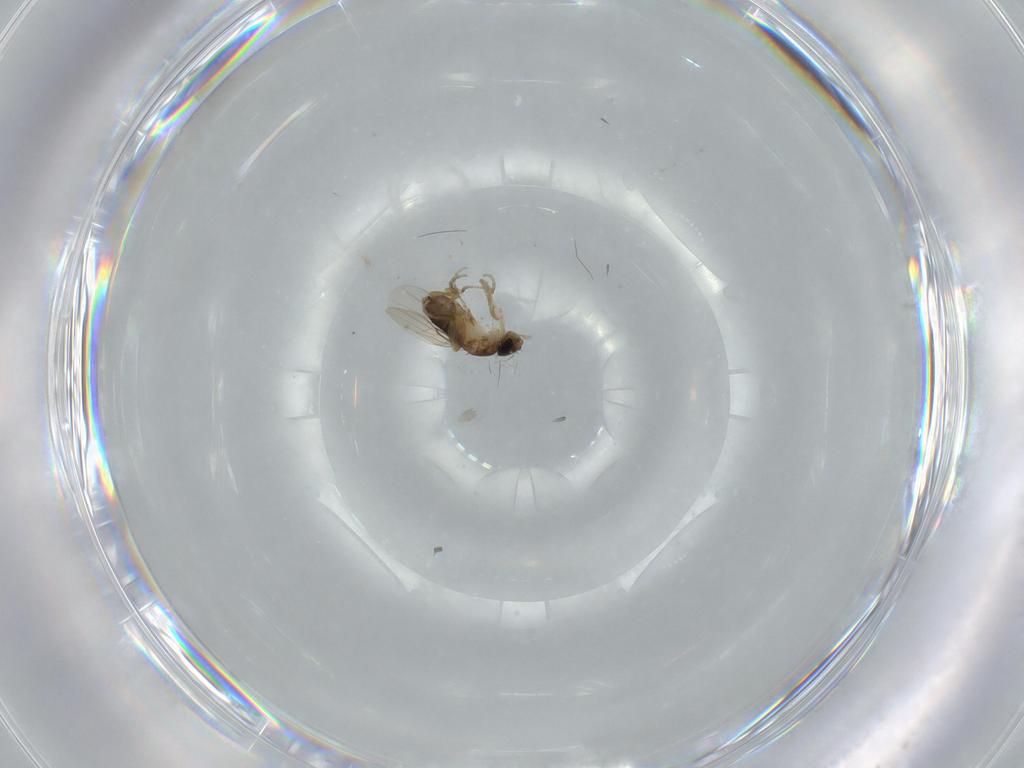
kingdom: Animalia
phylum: Arthropoda
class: Insecta
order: Diptera
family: Phoridae
